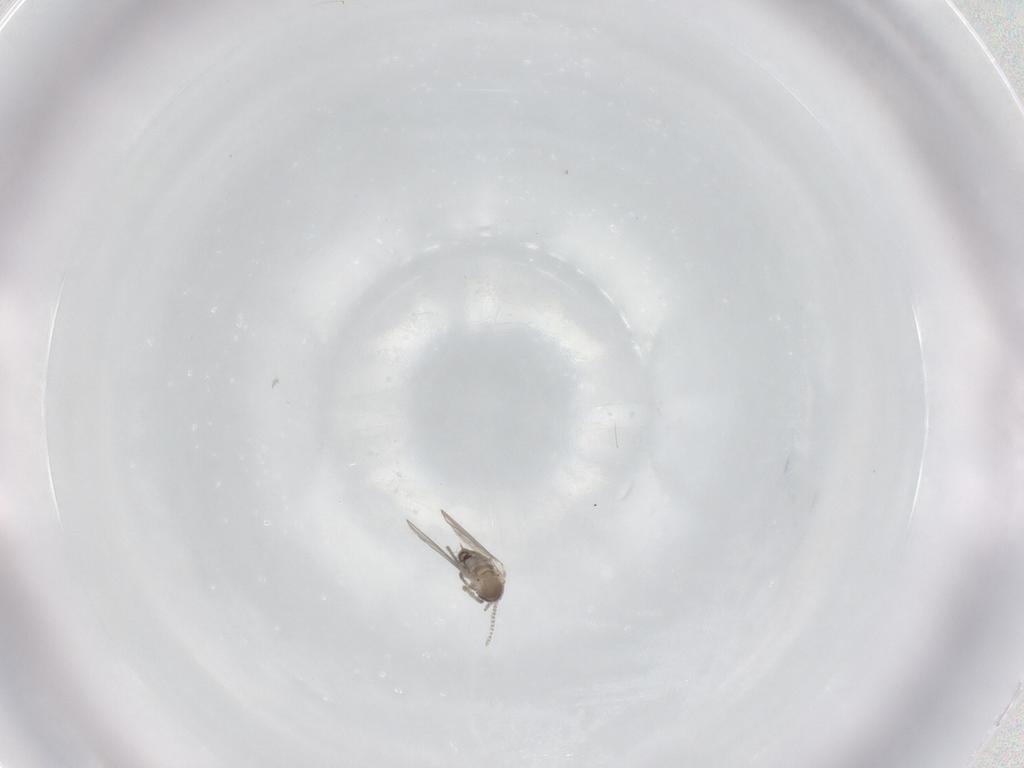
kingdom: Animalia
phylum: Arthropoda
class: Insecta
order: Diptera
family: Psychodidae
